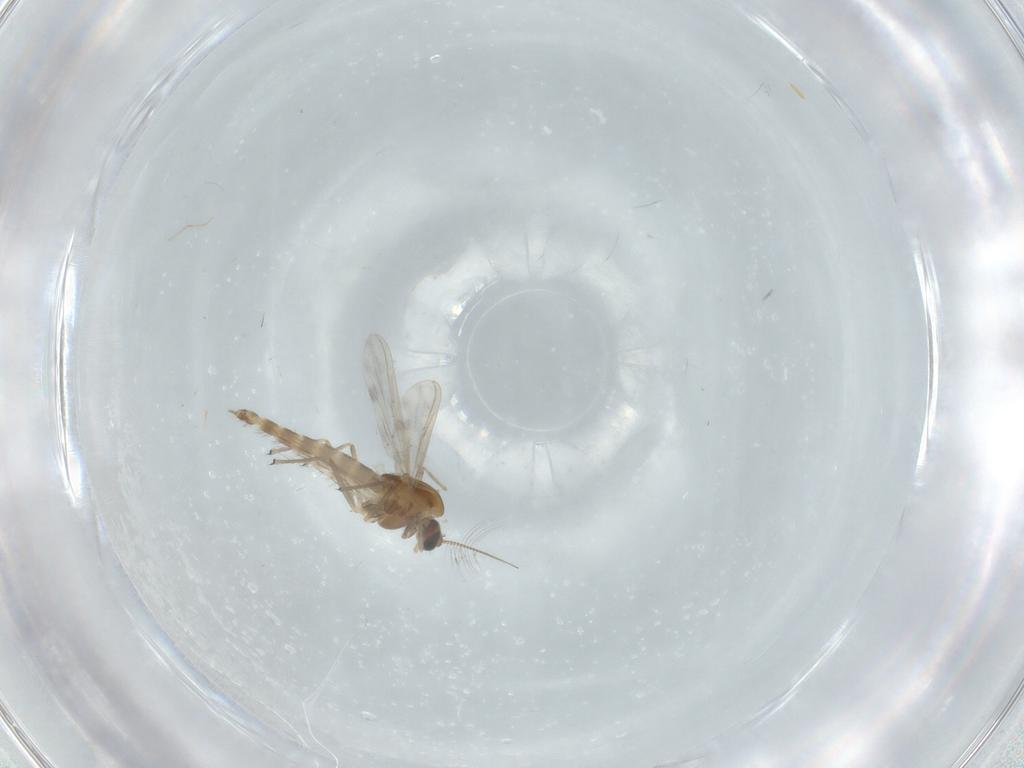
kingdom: Animalia
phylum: Arthropoda
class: Insecta
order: Diptera
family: Chironomidae
